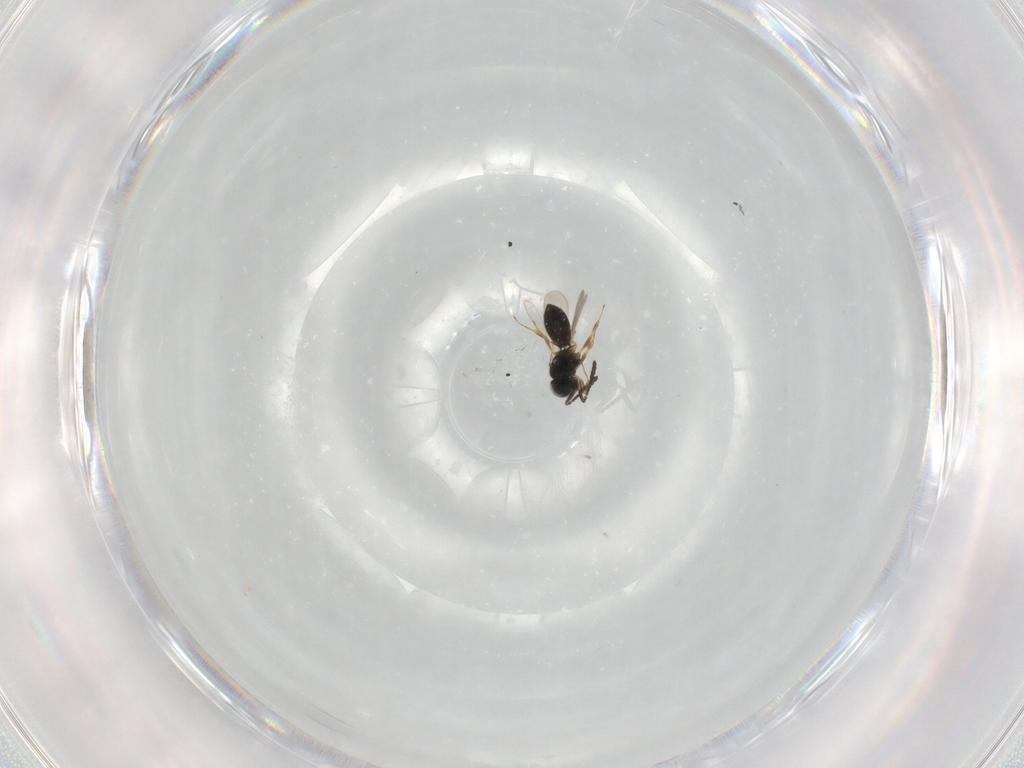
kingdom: Animalia
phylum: Arthropoda
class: Insecta
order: Hymenoptera
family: Scelionidae
